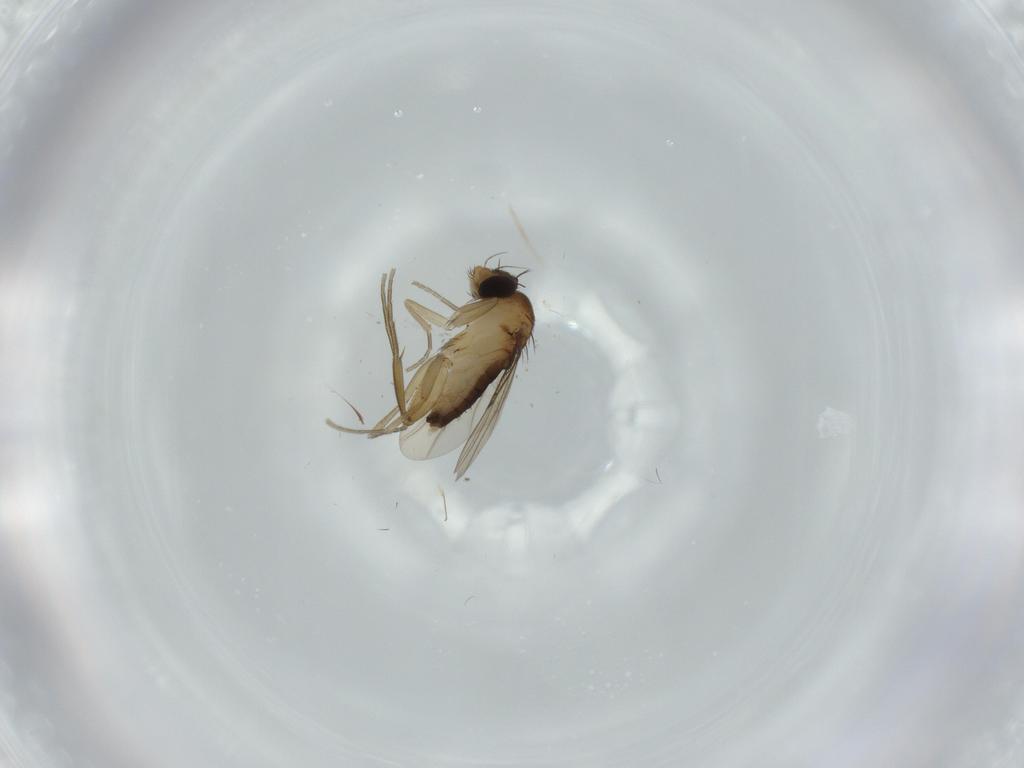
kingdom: Animalia
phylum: Arthropoda
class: Insecta
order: Diptera
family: Phoridae
